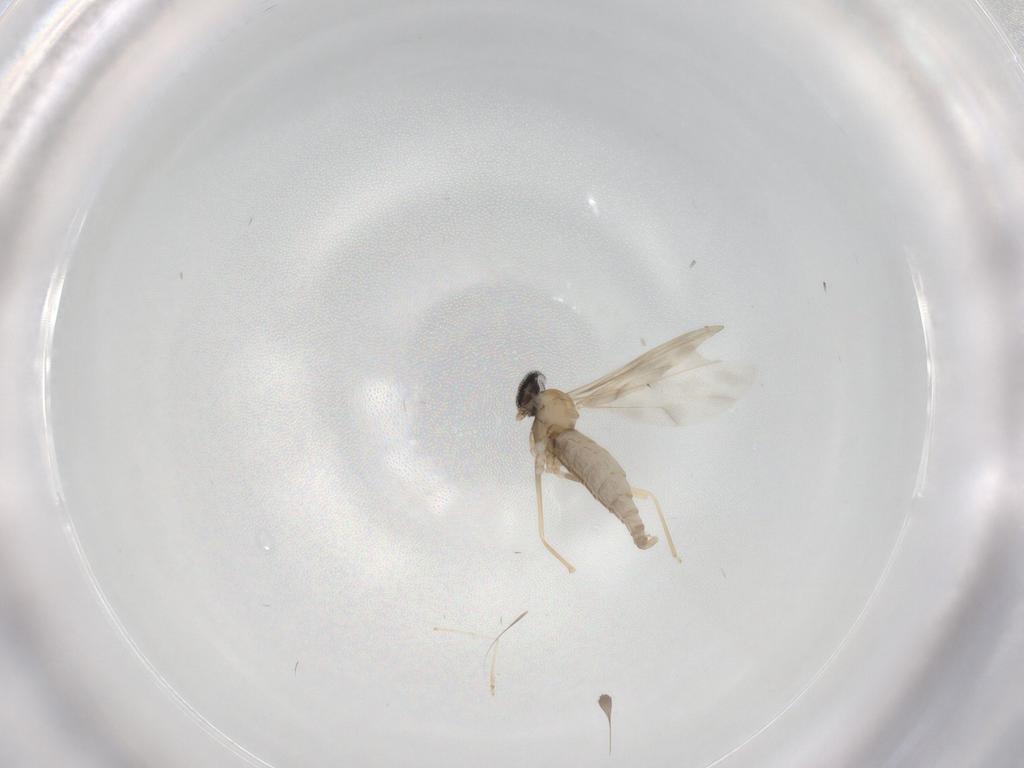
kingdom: Animalia
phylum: Arthropoda
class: Insecta
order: Diptera
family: Cecidomyiidae
